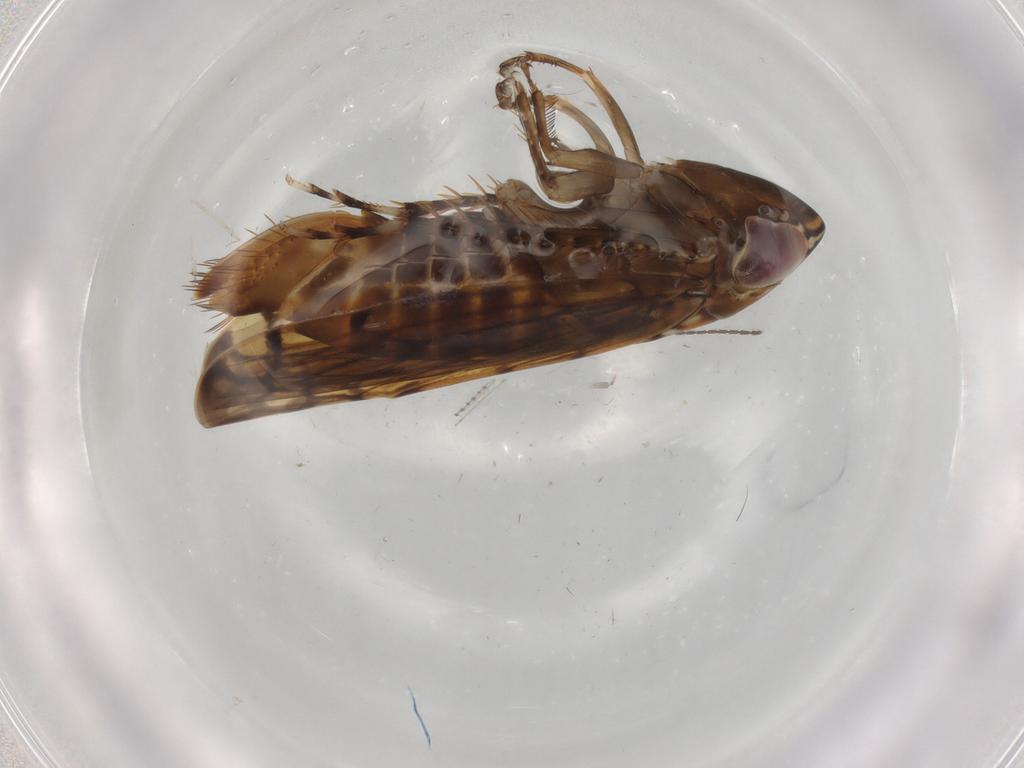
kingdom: Animalia
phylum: Arthropoda
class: Insecta
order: Hemiptera
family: Cicadellidae
